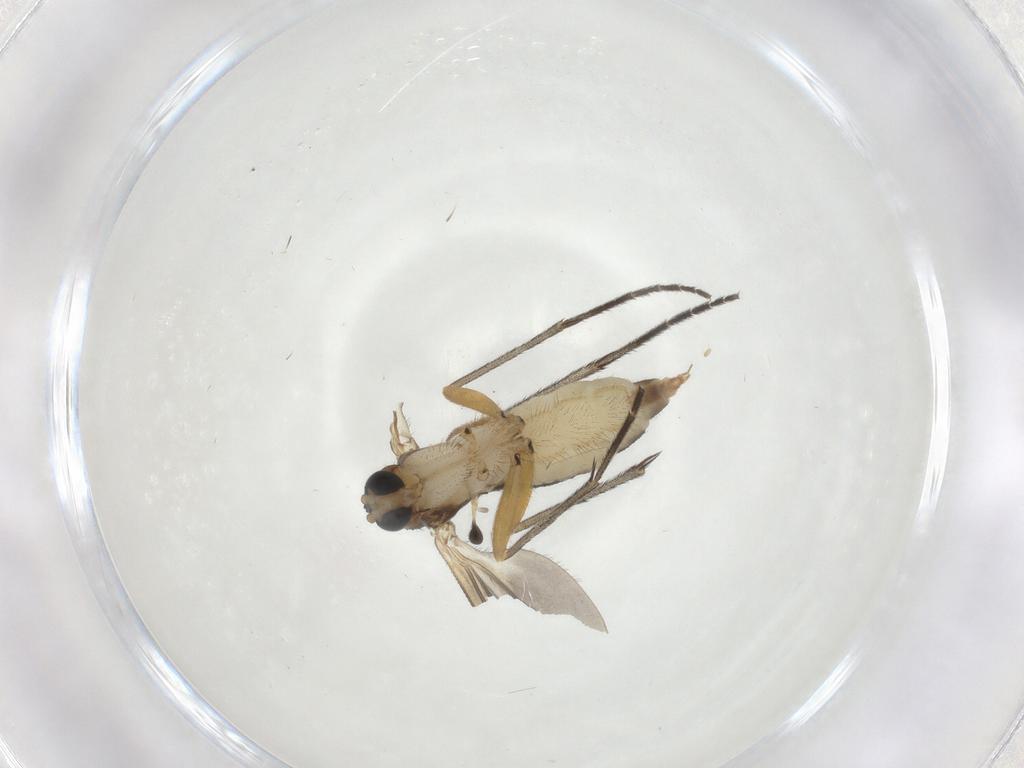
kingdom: Animalia
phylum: Arthropoda
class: Insecta
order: Diptera
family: Sciaridae
